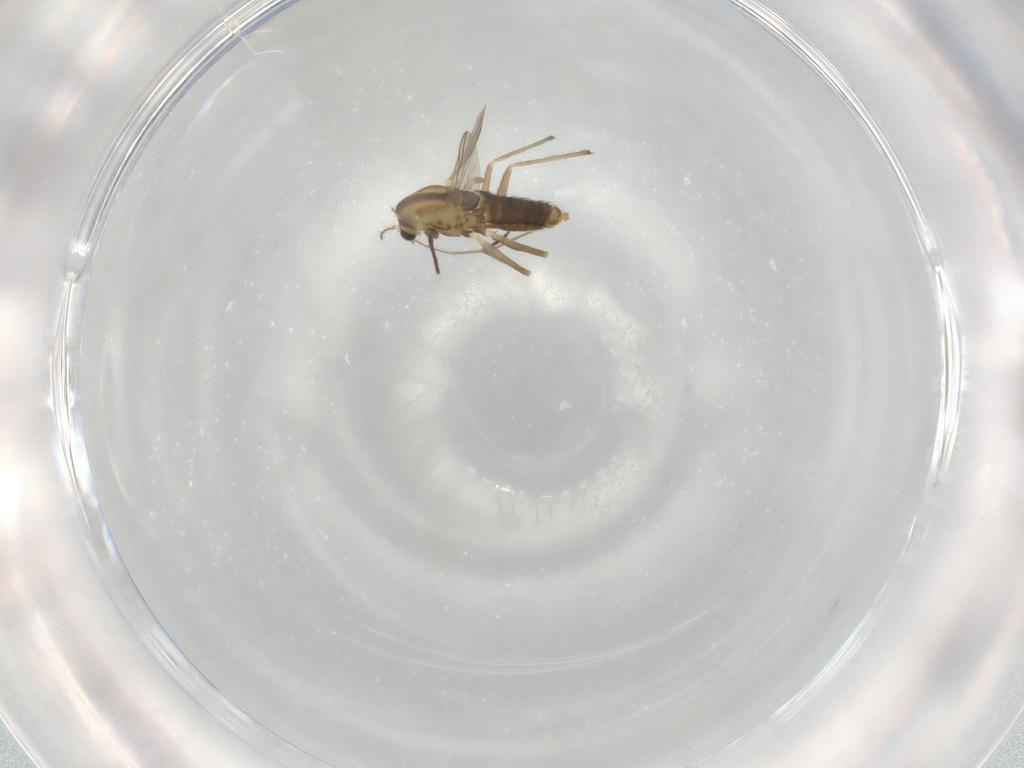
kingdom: Animalia
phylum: Arthropoda
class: Insecta
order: Diptera
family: Chironomidae
